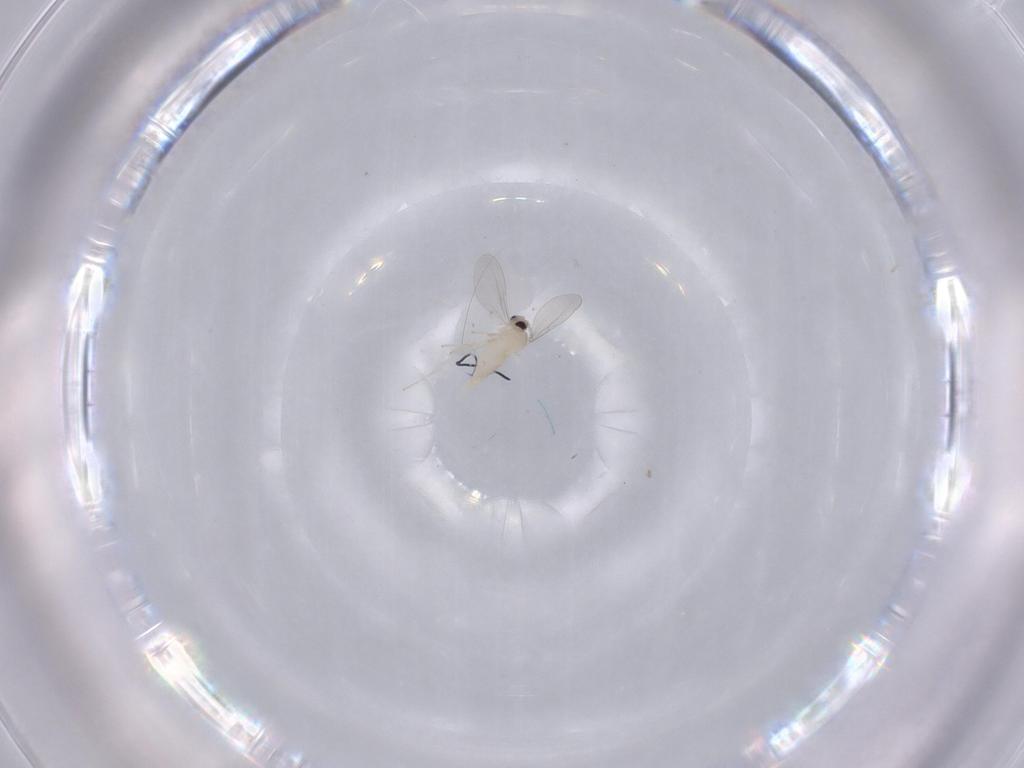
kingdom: Animalia
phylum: Arthropoda
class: Insecta
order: Diptera
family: Cecidomyiidae
